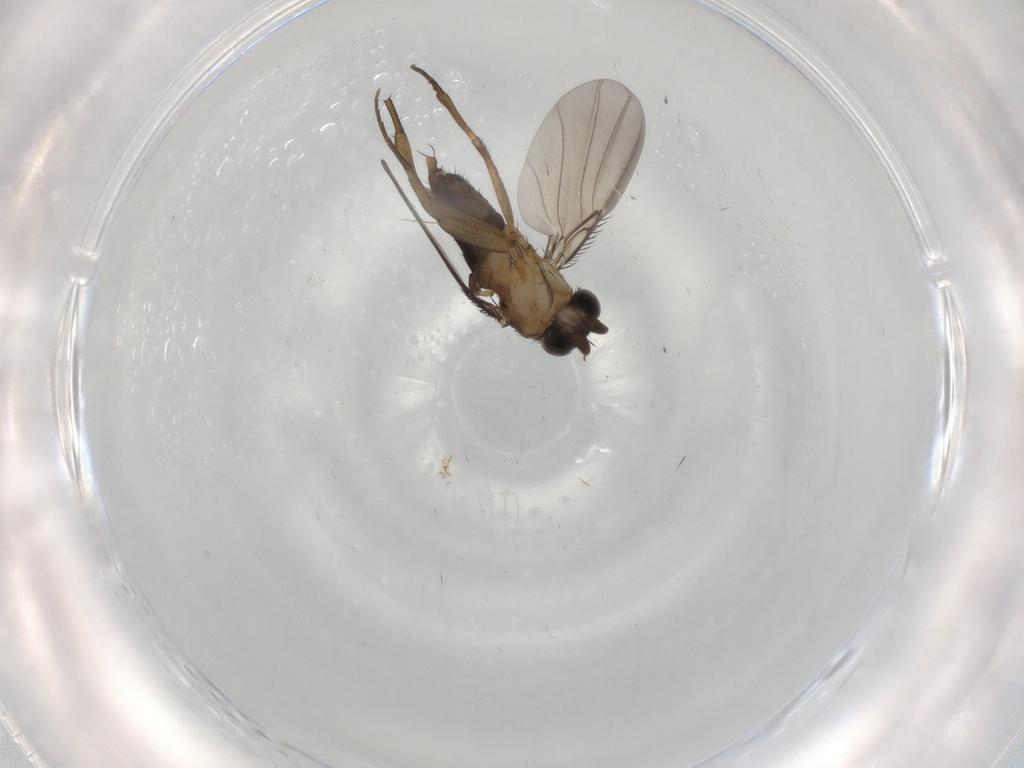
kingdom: Animalia
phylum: Arthropoda
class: Insecta
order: Diptera
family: Phoridae
